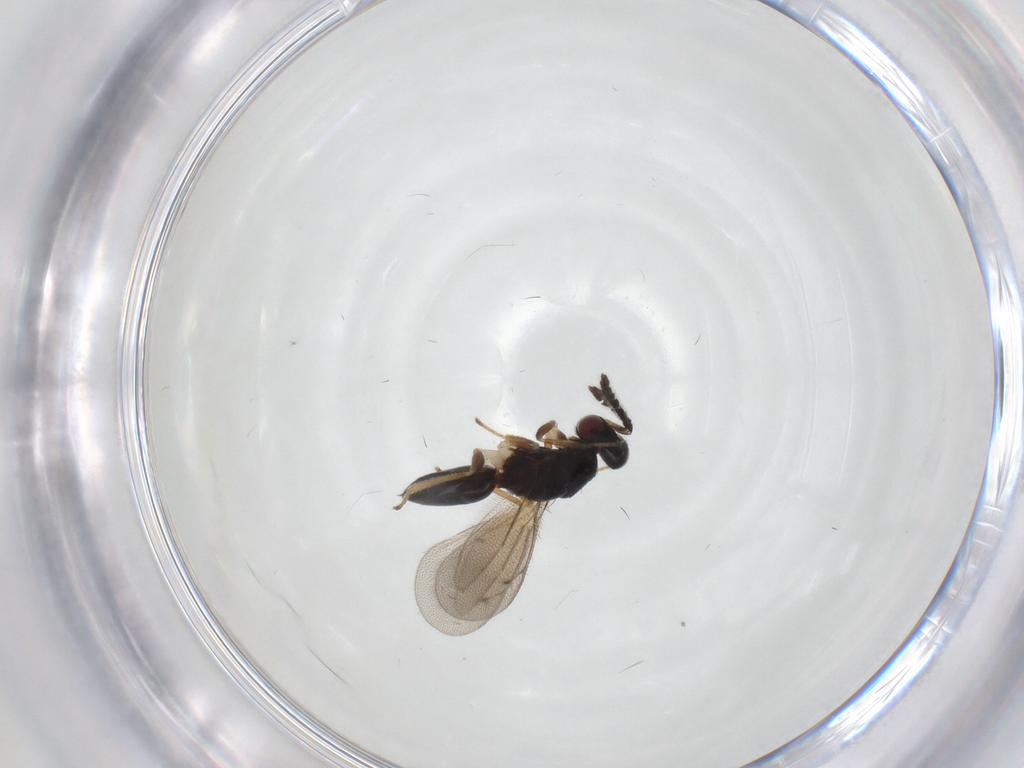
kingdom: Animalia
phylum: Arthropoda
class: Insecta
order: Hymenoptera
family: Eulophidae
